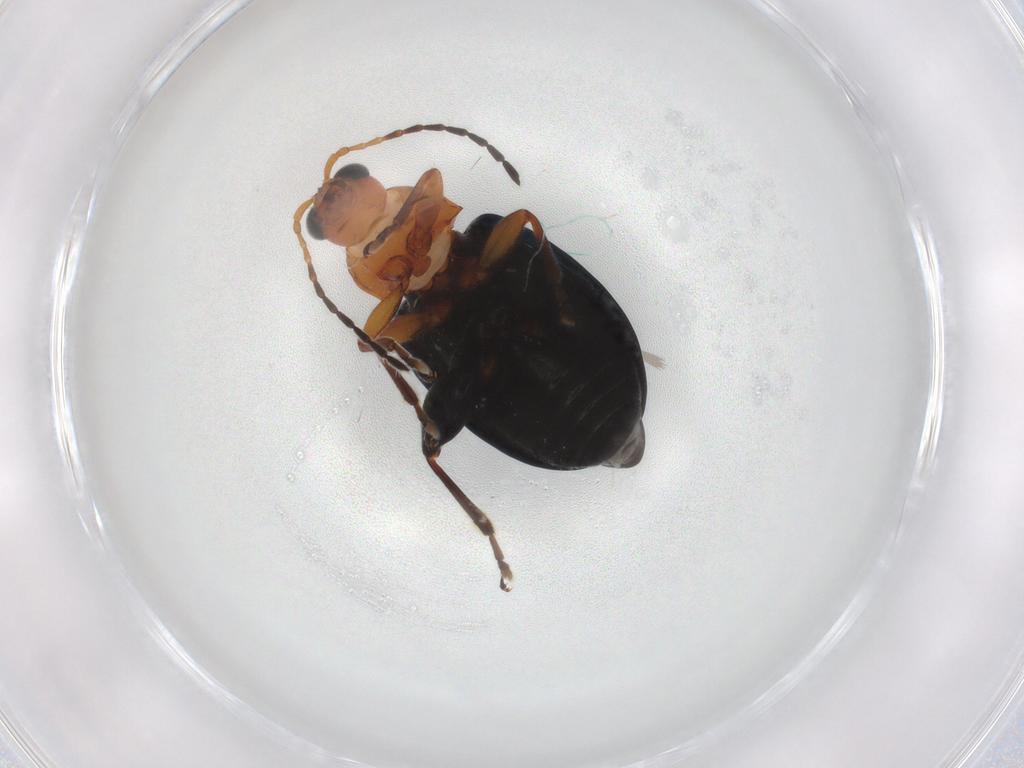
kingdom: Animalia
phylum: Arthropoda
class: Insecta
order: Coleoptera
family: Chrysomelidae
